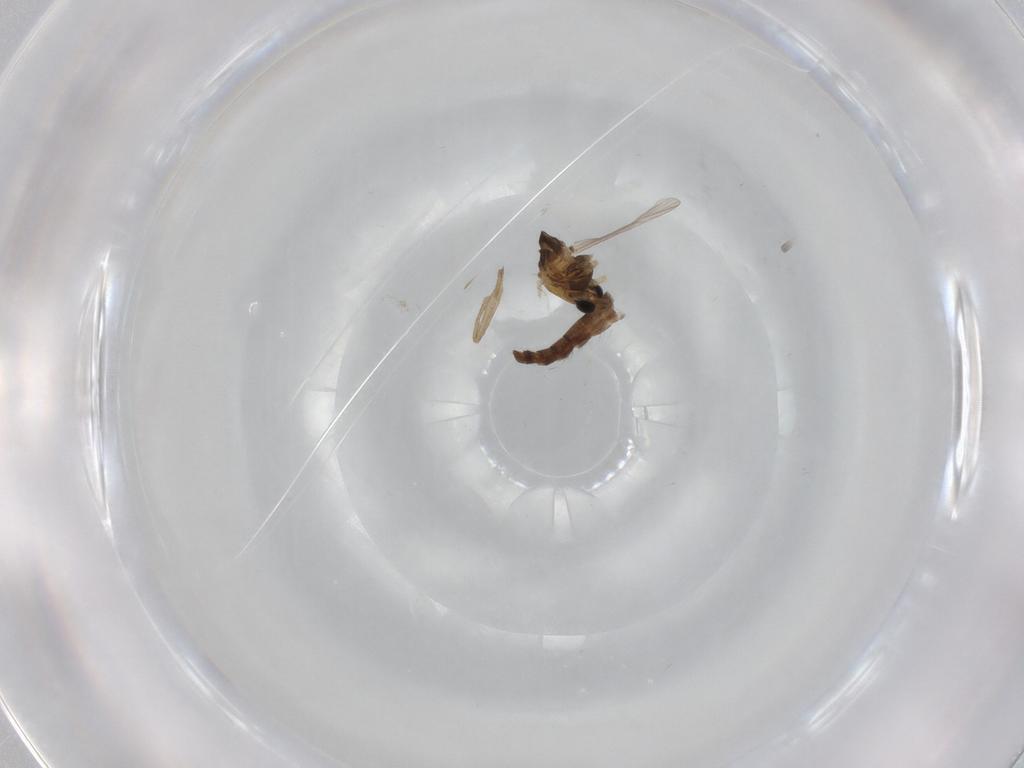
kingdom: Animalia
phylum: Arthropoda
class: Insecta
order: Diptera
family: Chironomidae
